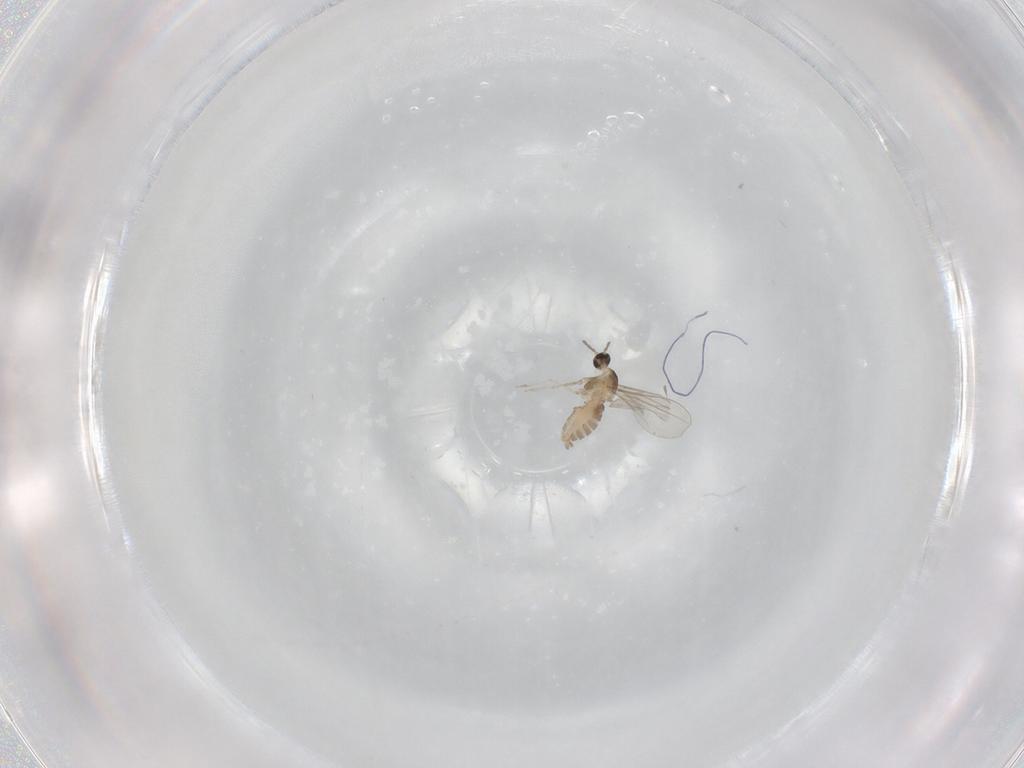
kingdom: Animalia
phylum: Arthropoda
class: Insecta
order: Diptera
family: Cecidomyiidae
